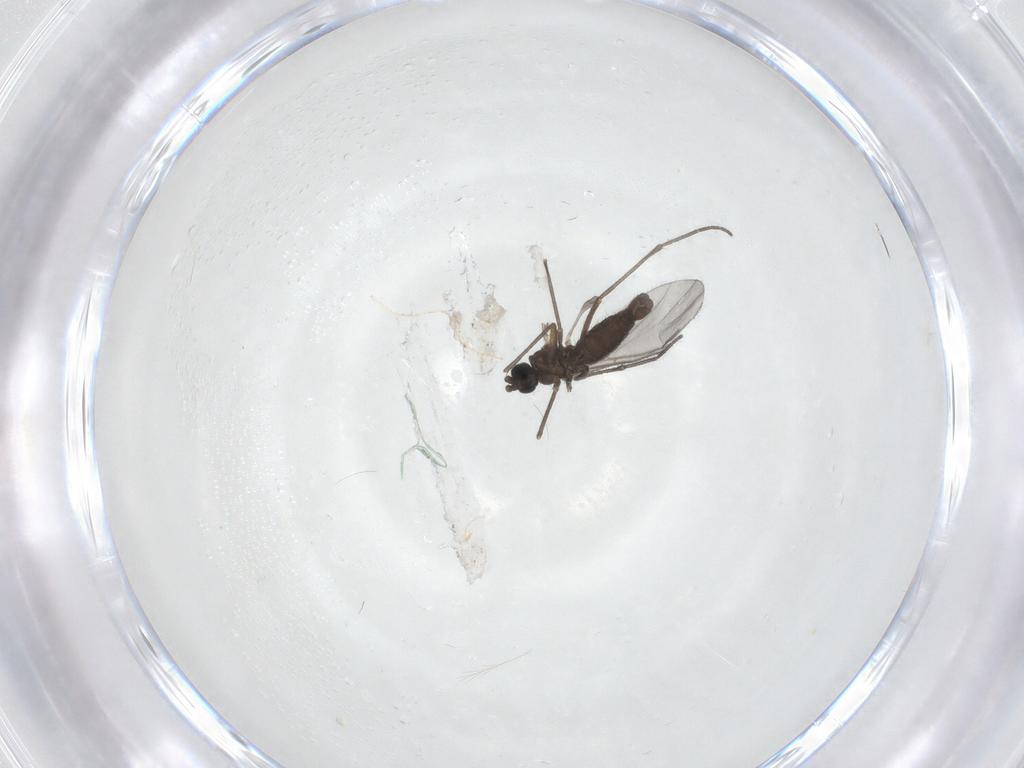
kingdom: Animalia
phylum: Arthropoda
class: Insecta
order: Diptera
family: Sciaridae
